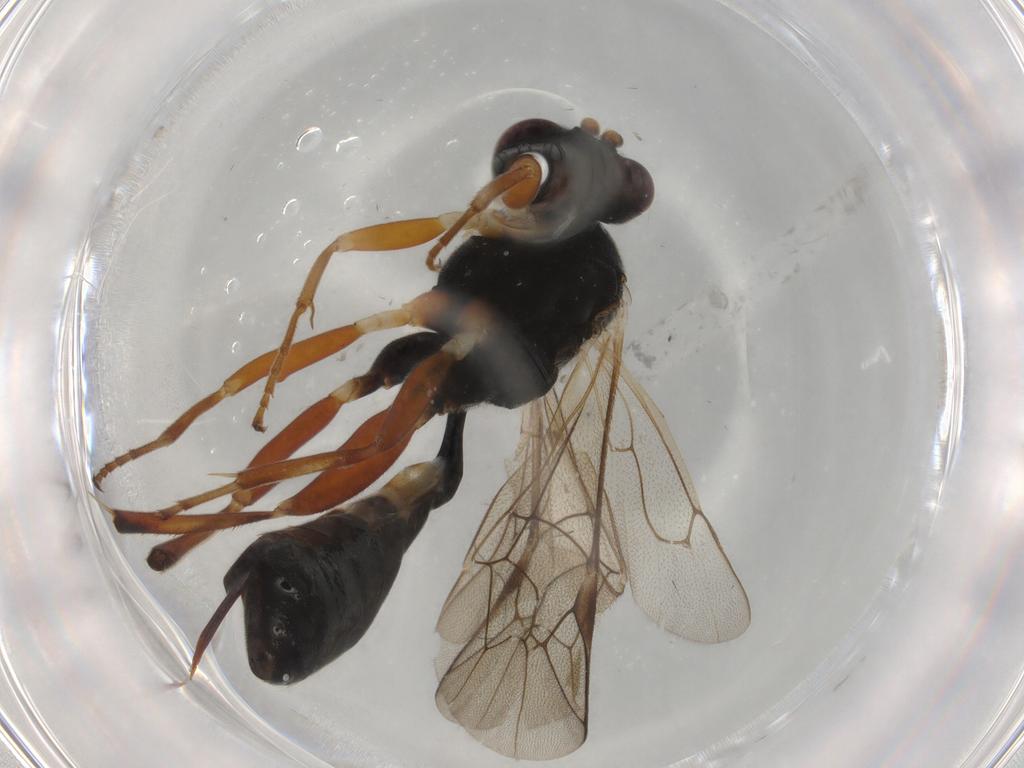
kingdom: Animalia
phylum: Arthropoda
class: Insecta
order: Hymenoptera
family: Ichneumonidae
